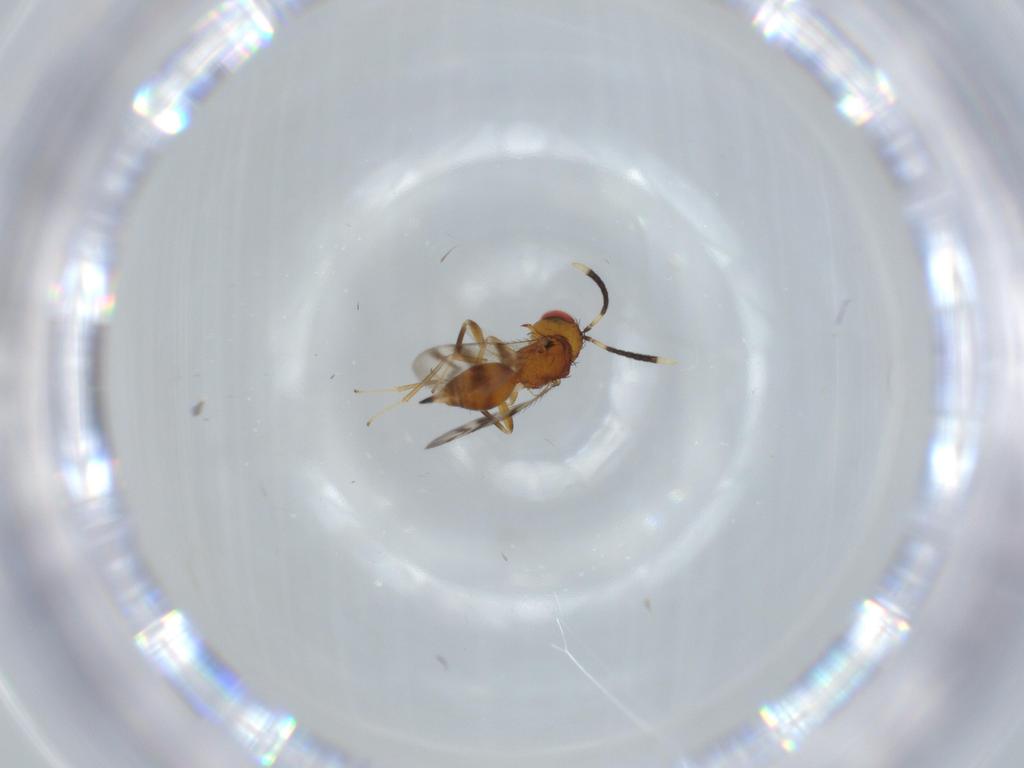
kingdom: Animalia
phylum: Arthropoda
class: Insecta
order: Hymenoptera
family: Diparidae
